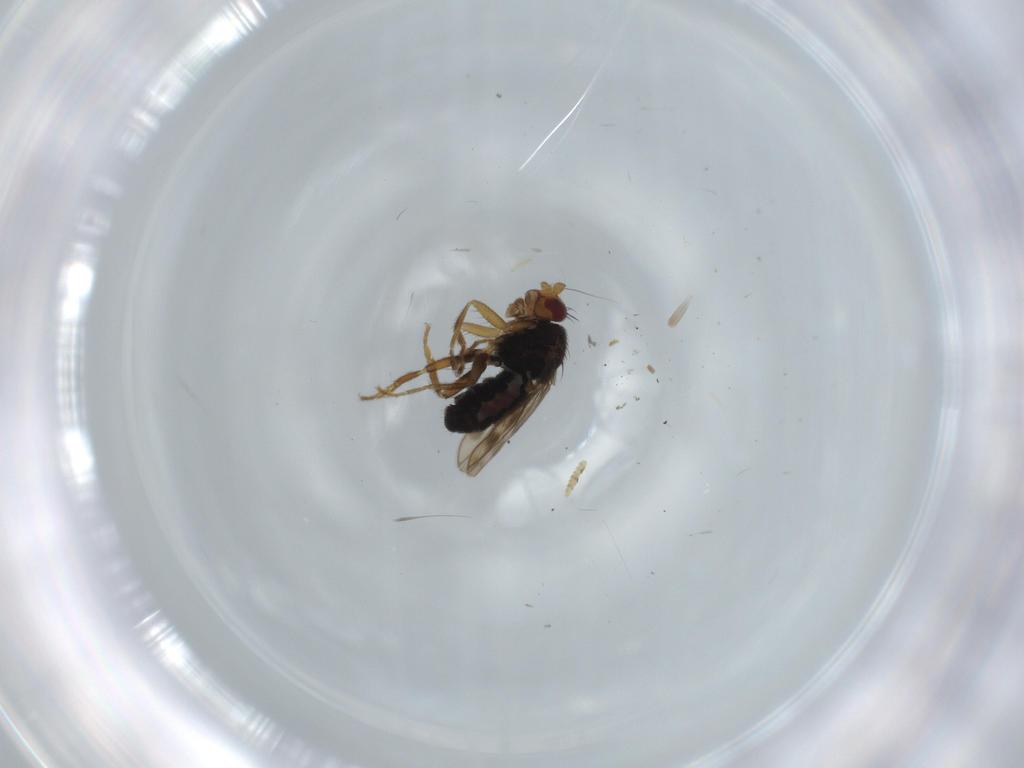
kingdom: Animalia
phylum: Arthropoda
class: Insecta
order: Diptera
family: Sphaeroceridae
